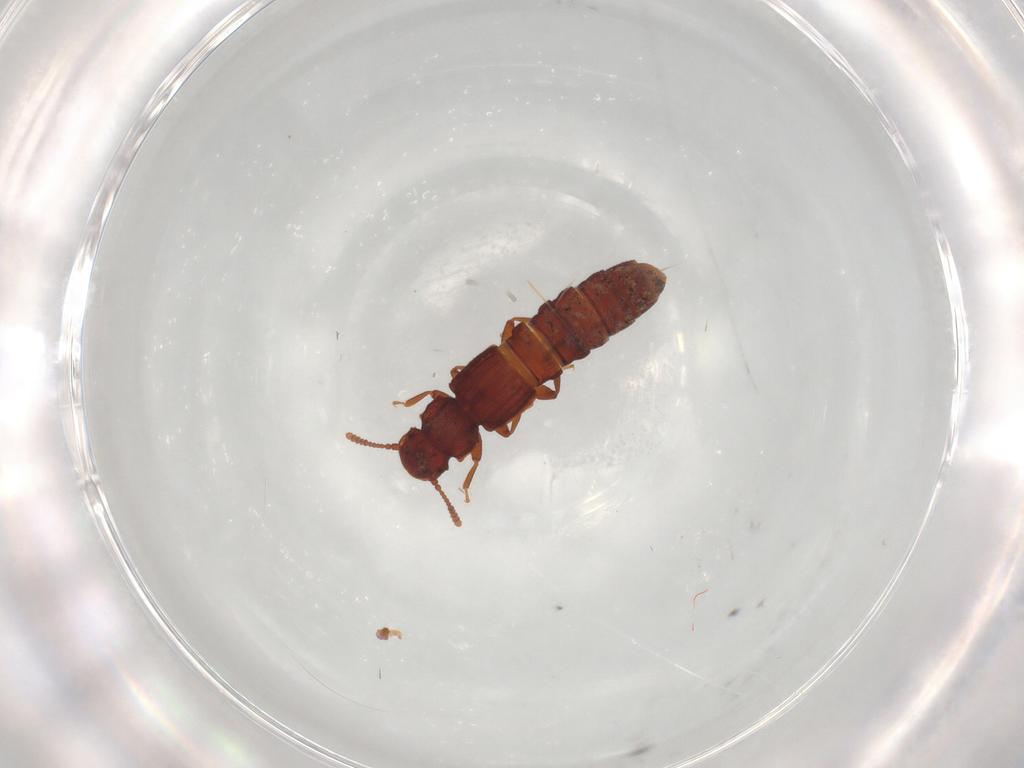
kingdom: Animalia
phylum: Arthropoda
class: Insecta
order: Coleoptera
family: Staphylinidae
